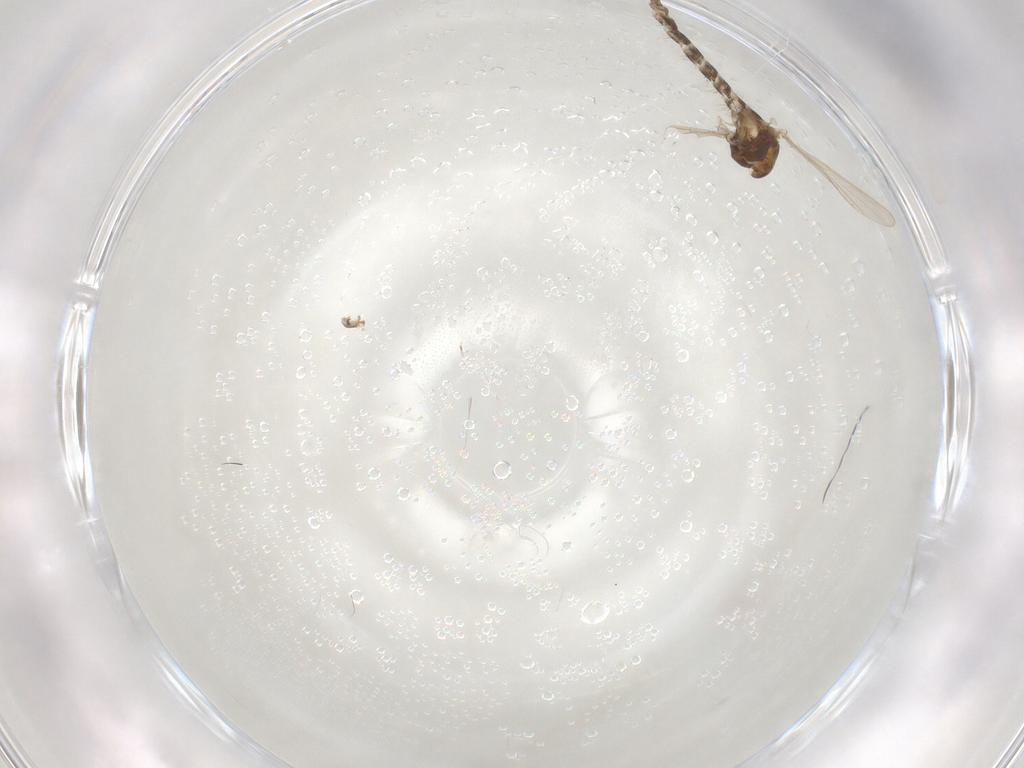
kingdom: Animalia
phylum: Arthropoda
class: Insecta
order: Diptera
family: Chironomidae
